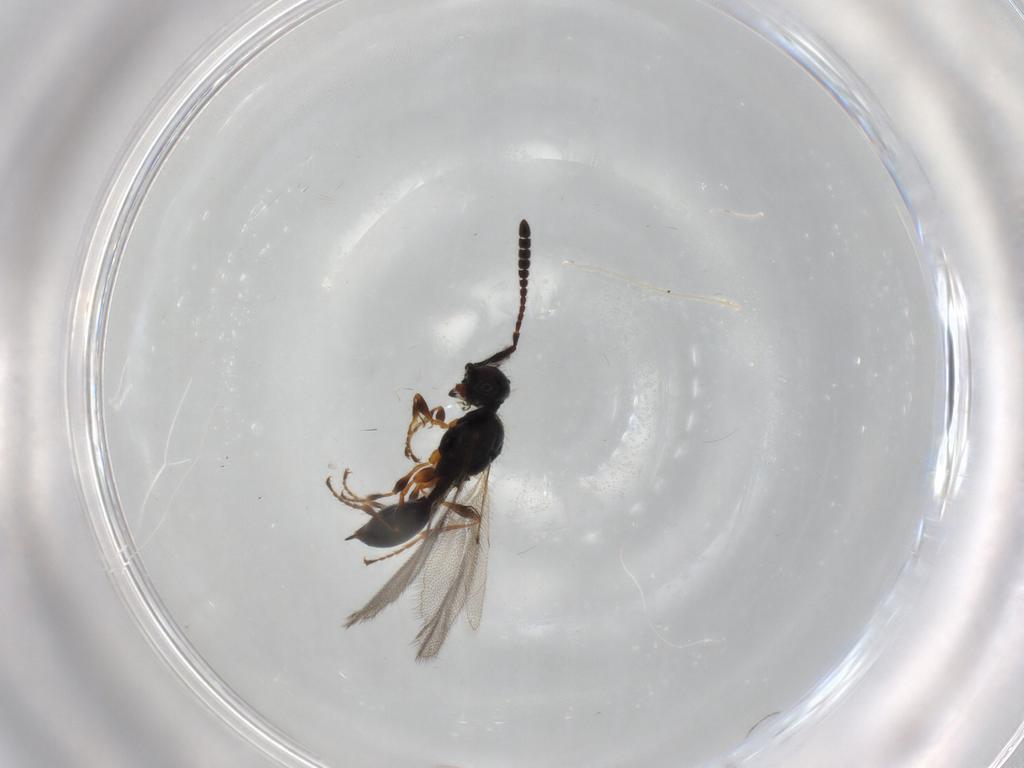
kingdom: Animalia
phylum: Arthropoda
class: Insecta
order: Hymenoptera
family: Diapriidae
